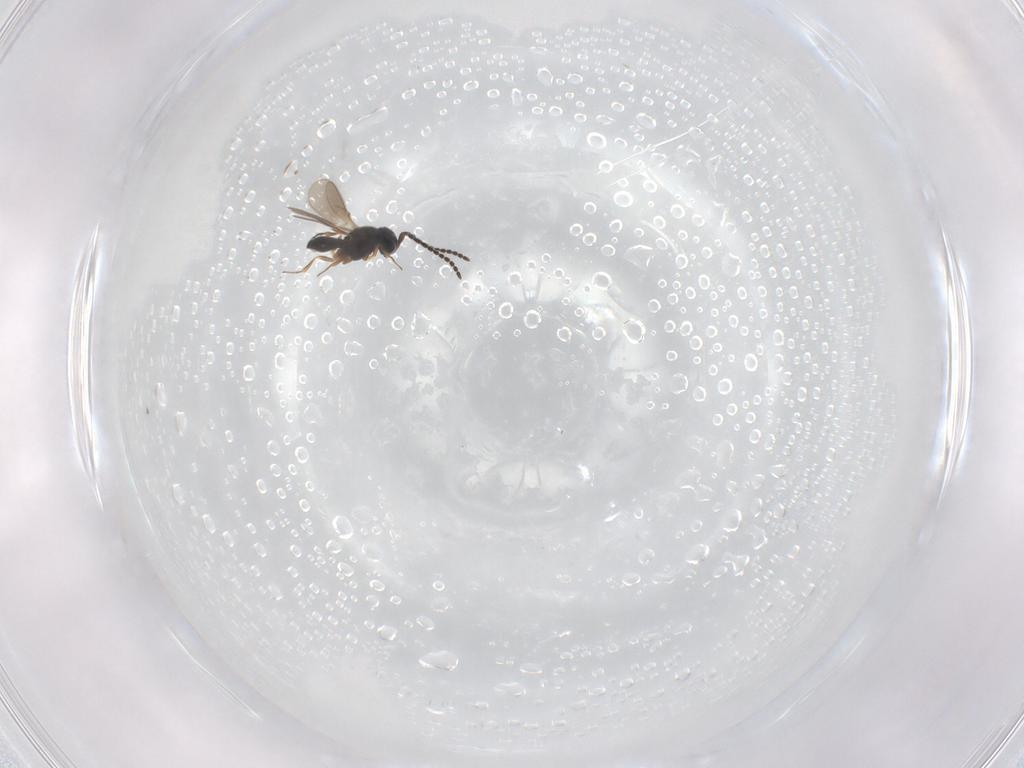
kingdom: Animalia
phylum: Arthropoda
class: Insecta
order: Hymenoptera
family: Scelionidae
